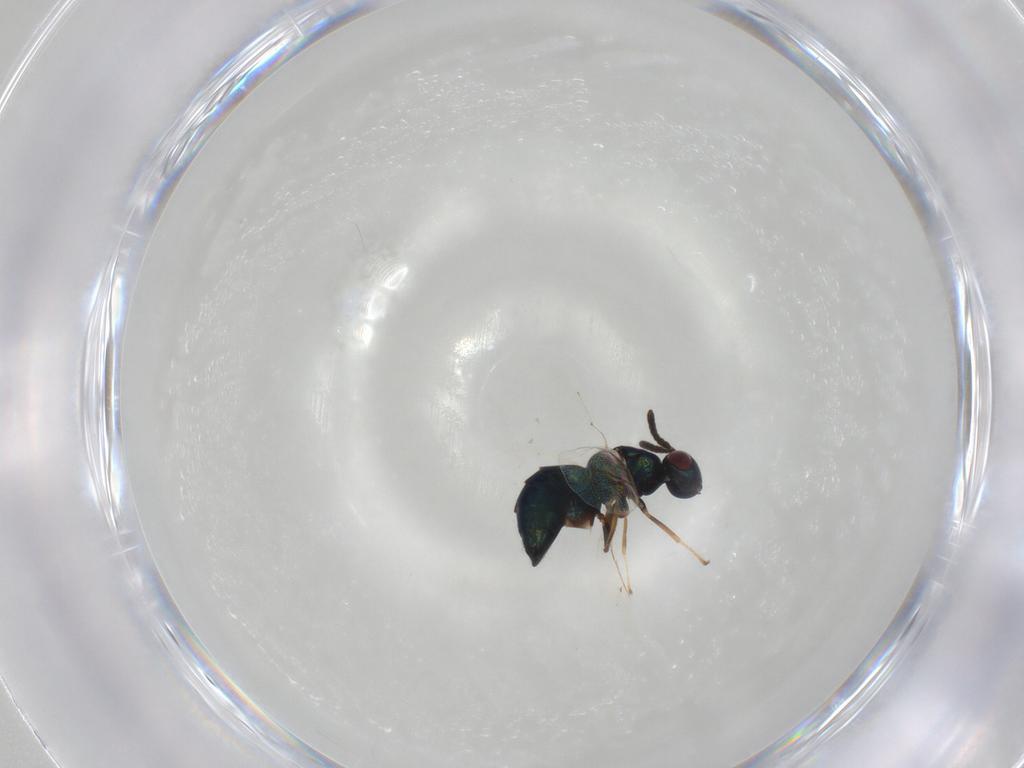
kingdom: Animalia
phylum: Arthropoda
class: Insecta
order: Hymenoptera
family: Pteromalidae
